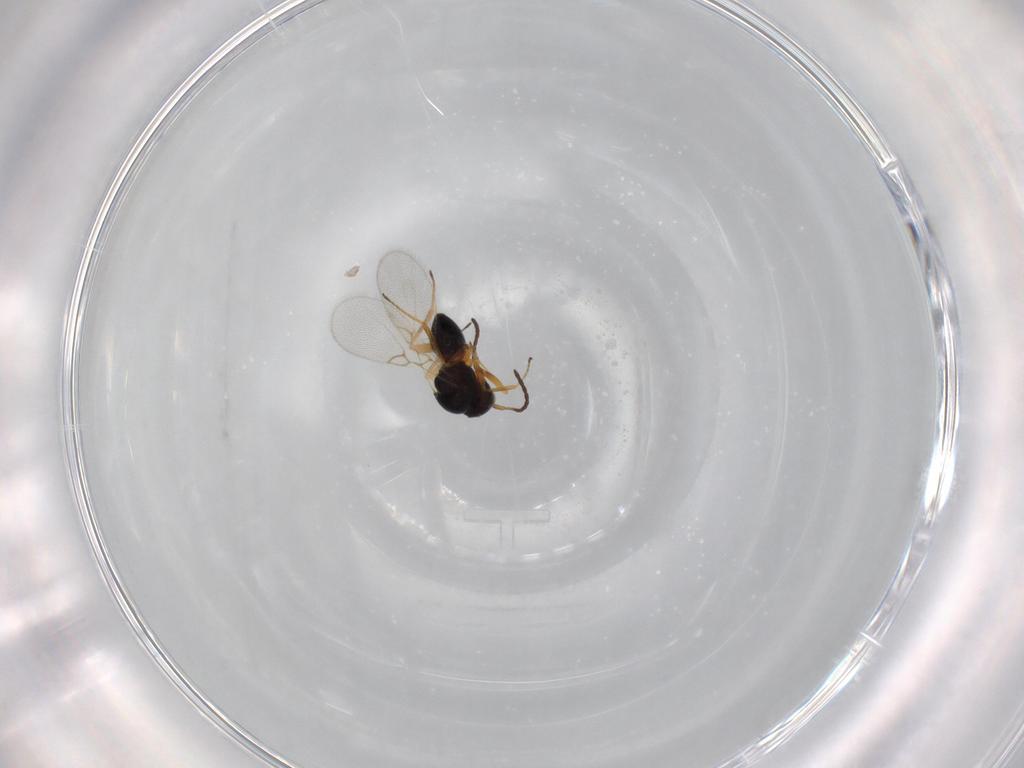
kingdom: Animalia
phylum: Arthropoda
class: Insecta
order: Hymenoptera
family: Figitidae
